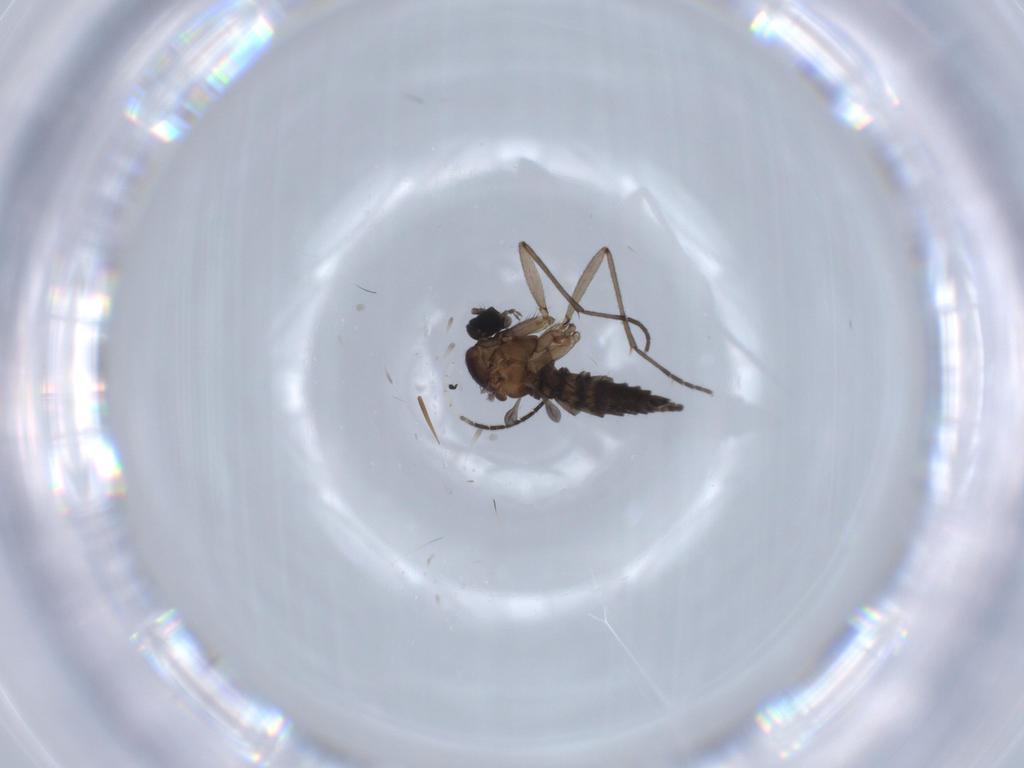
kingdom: Animalia
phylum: Arthropoda
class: Insecta
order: Diptera
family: Sciaridae
